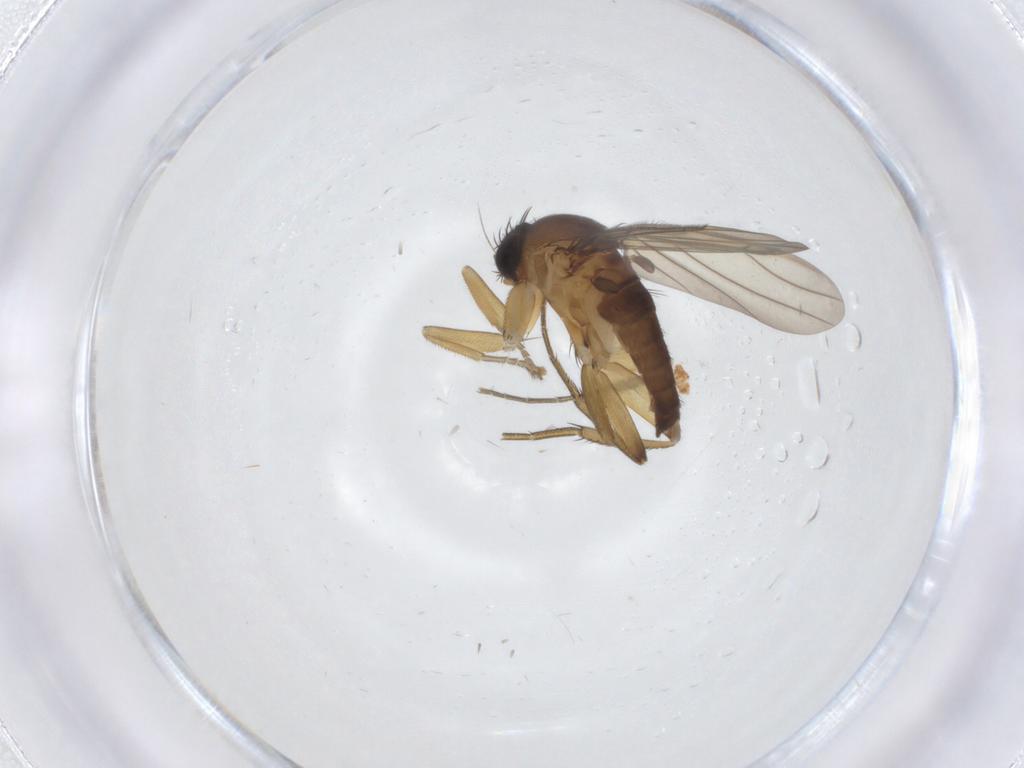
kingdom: Animalia
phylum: Arthropoda
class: Insecta
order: Diptera
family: Phoridae
